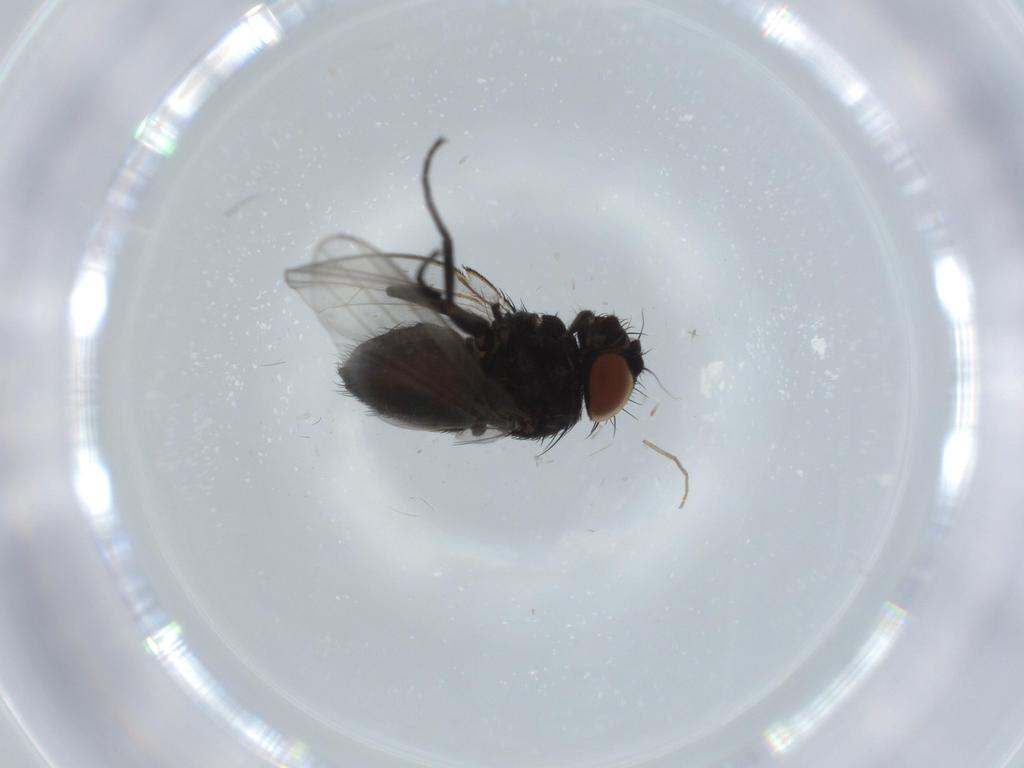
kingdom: Animalia
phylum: Arthropoda
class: Insecta
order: Diptera
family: Milichiidae
